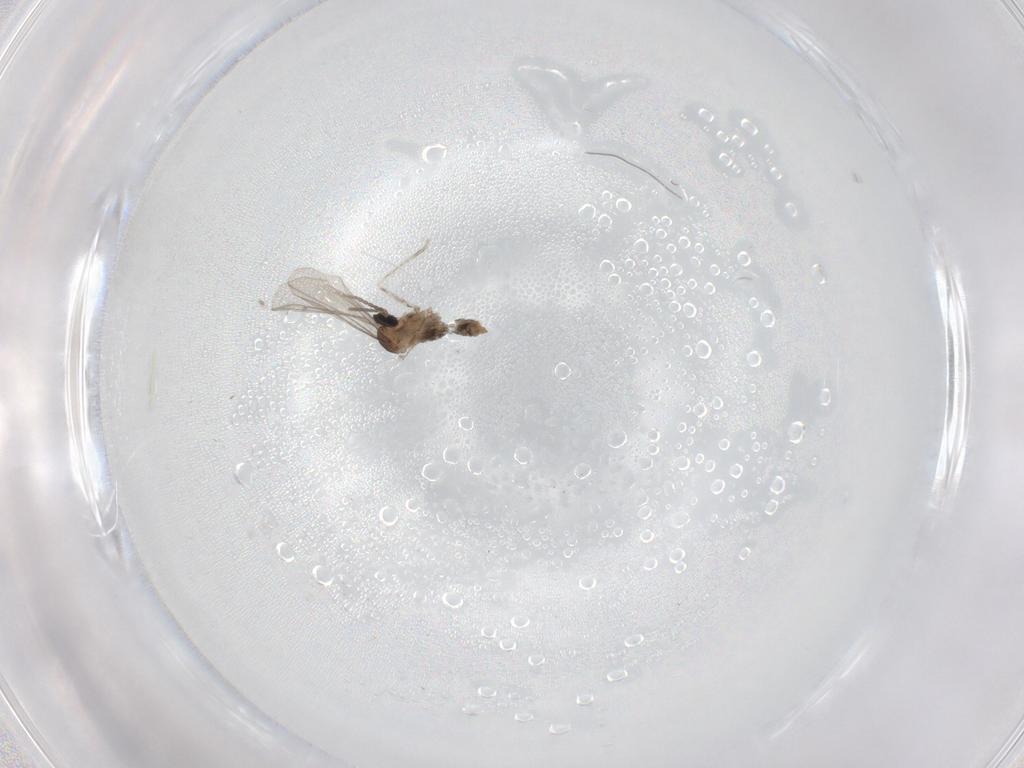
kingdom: Animalia
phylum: Arthropoda
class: Insecta
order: Diptera
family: Cecidomyiidae
